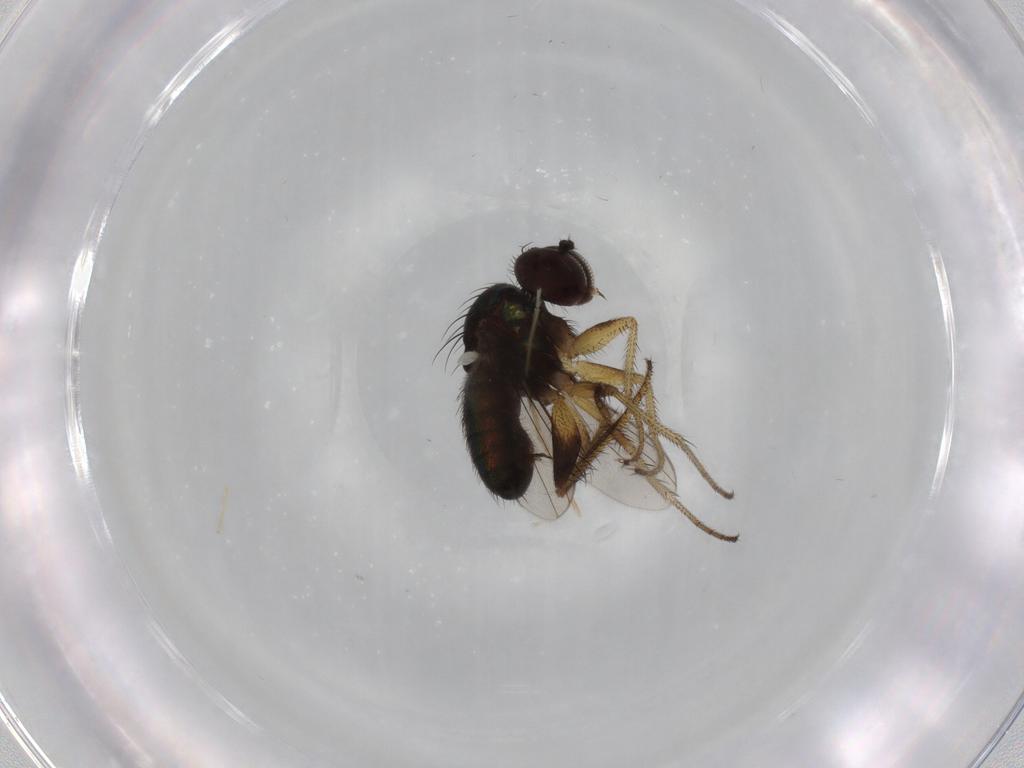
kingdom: Animalia
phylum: Arthropoda
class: Insecta
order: Diptera
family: Dolichopodidae
